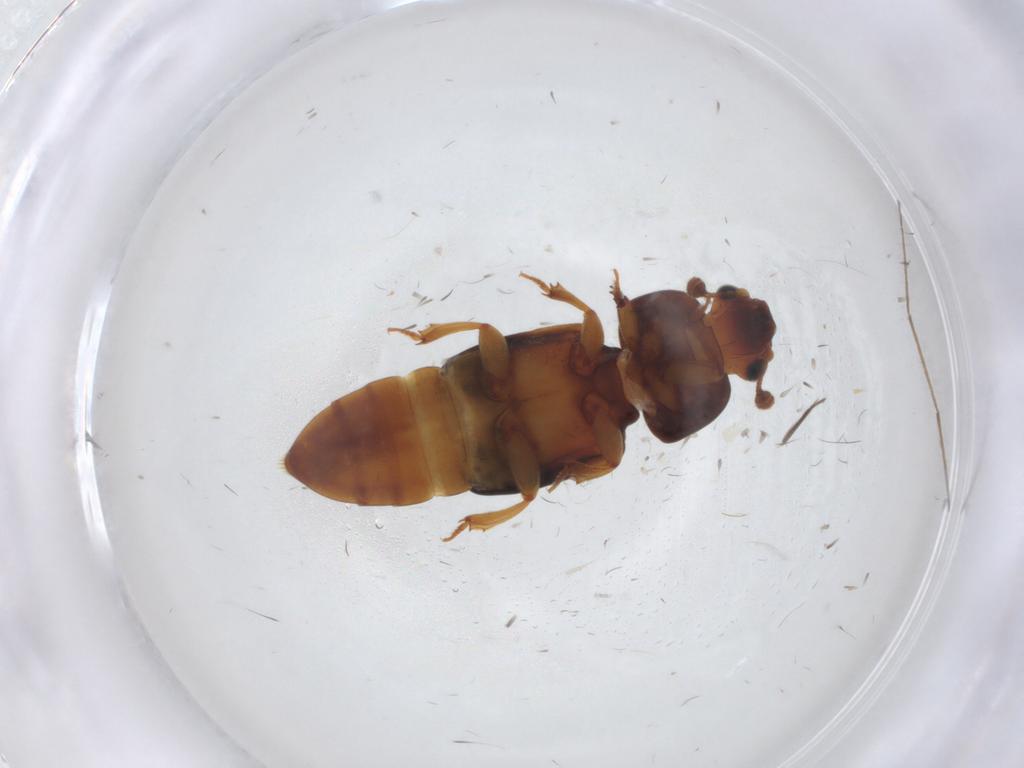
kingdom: Animalia
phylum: Arthropoda
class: Insecta
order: Coleoptera
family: Nitidulidae
